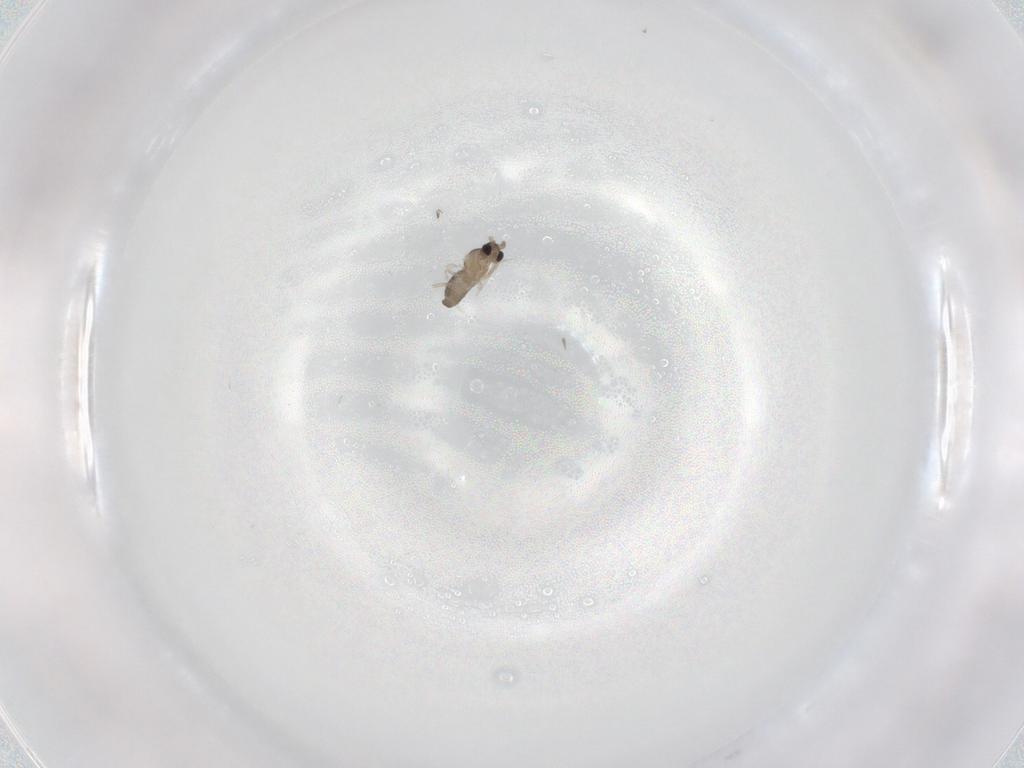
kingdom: Animalia
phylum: Arthropoda
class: Insecta
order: Diptera
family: Cecidomyiidae
